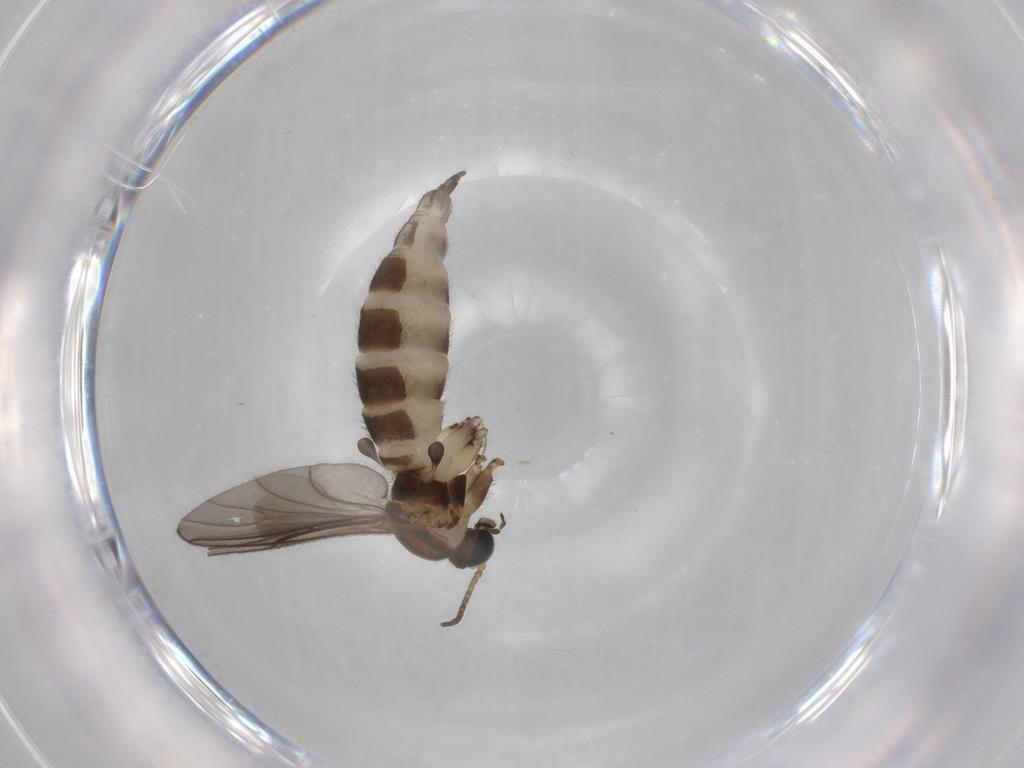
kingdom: Animalia
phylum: Arthropoda
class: Insecta
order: Diptera
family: Sciaridae
